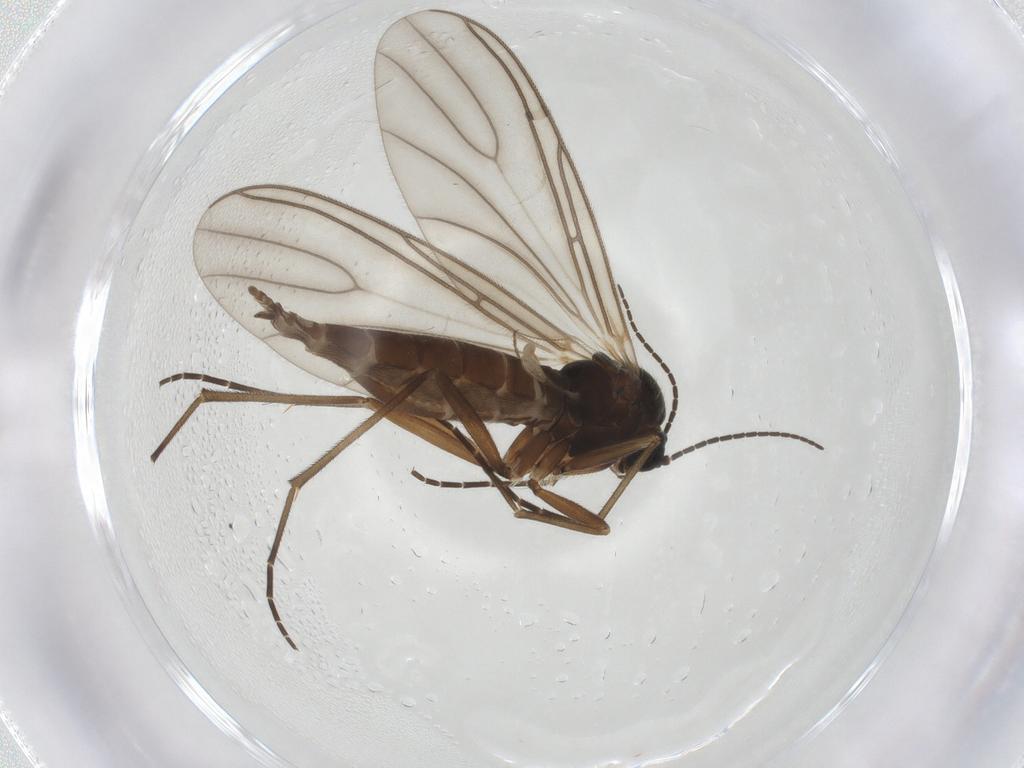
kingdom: Animalia
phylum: Arthropoda
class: Insecta
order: Diptera
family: Sciaridae
